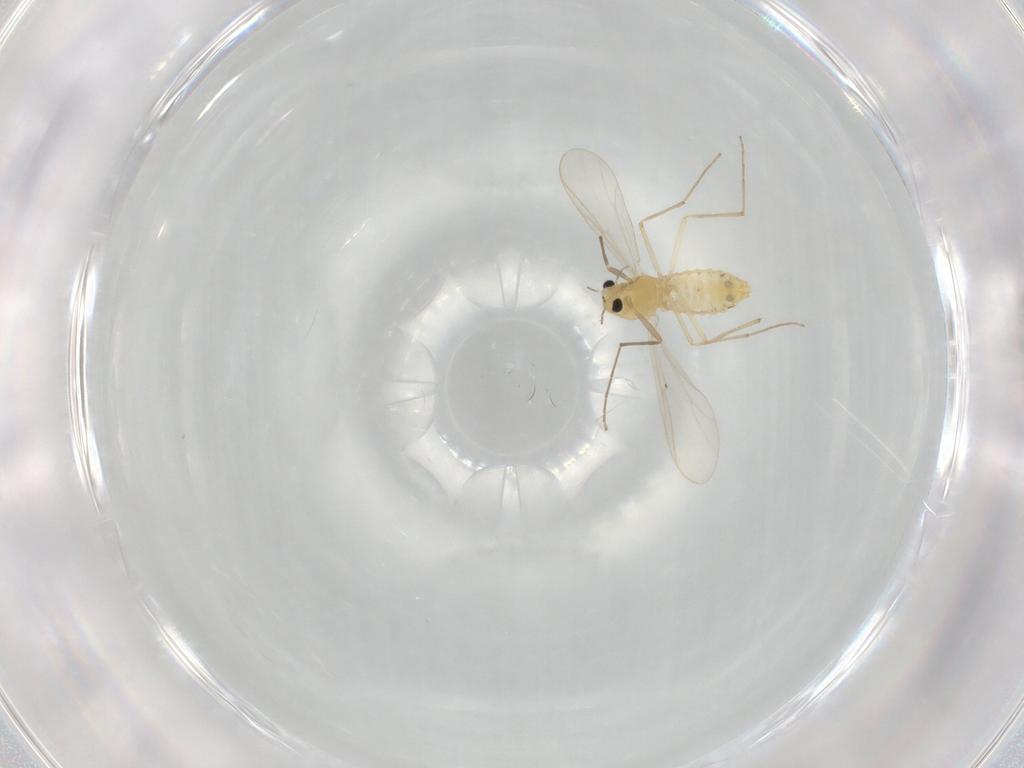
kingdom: Animalia
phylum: Arthropoda
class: Insecta
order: Diptera
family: Chironomidae
